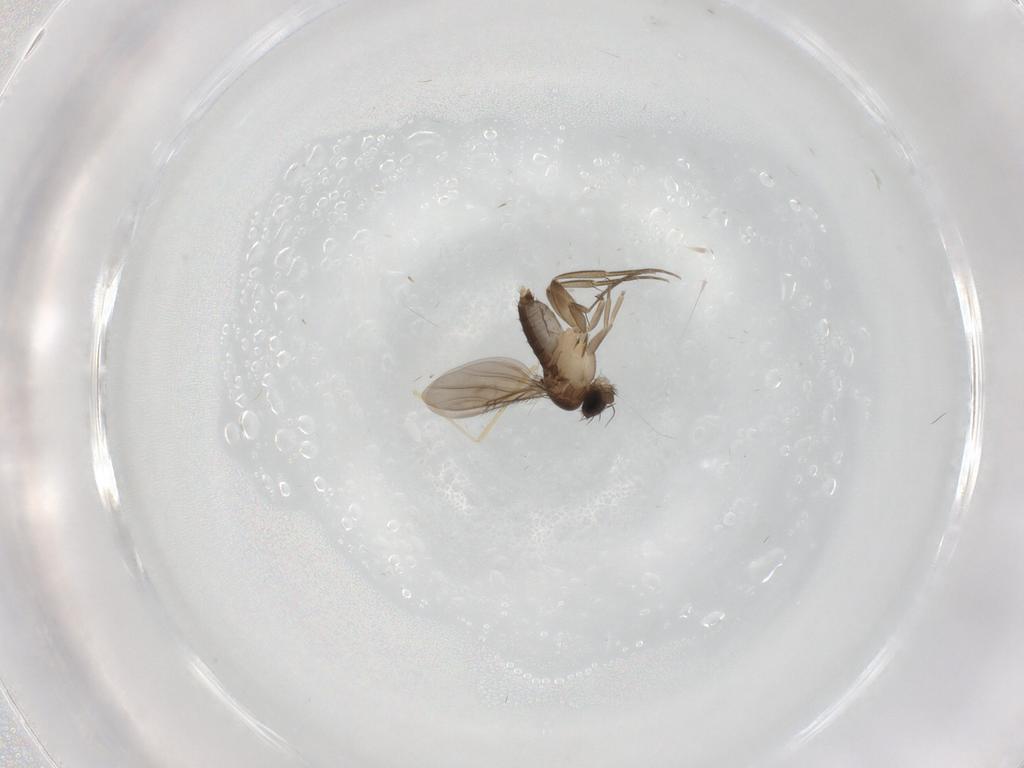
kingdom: Animalia
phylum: Arthropoda
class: Insecta
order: Diptera
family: Phoridae
